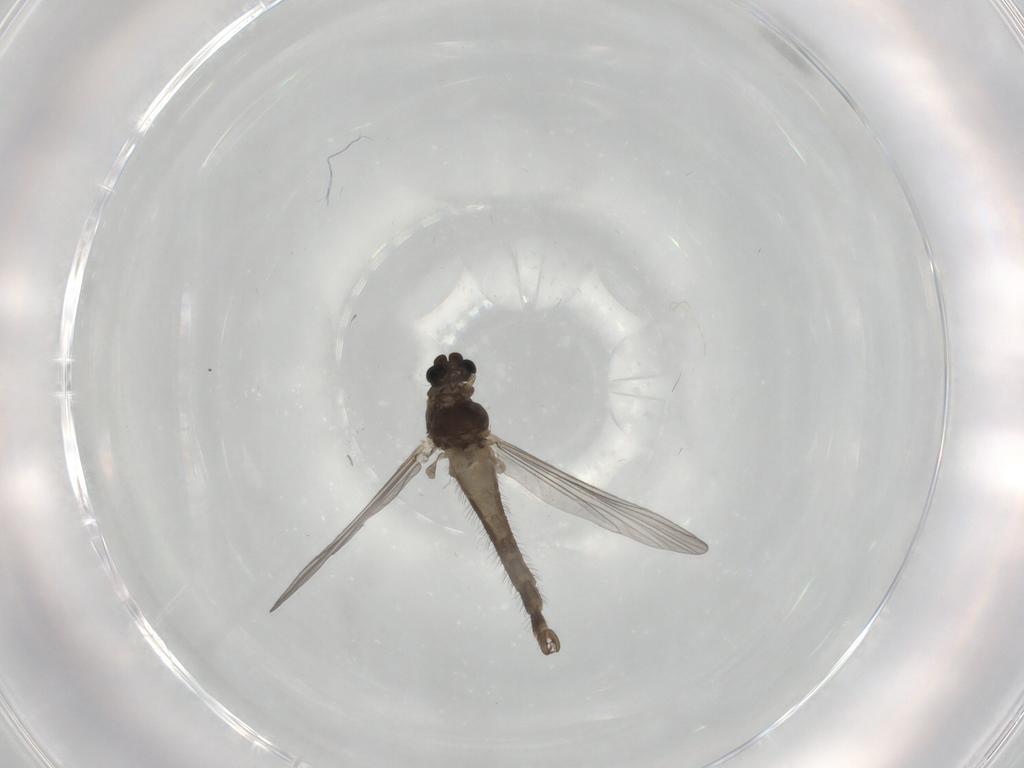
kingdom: Animalia
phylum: Arthropoda
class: Insecta
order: Diptera
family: Chironomidae
